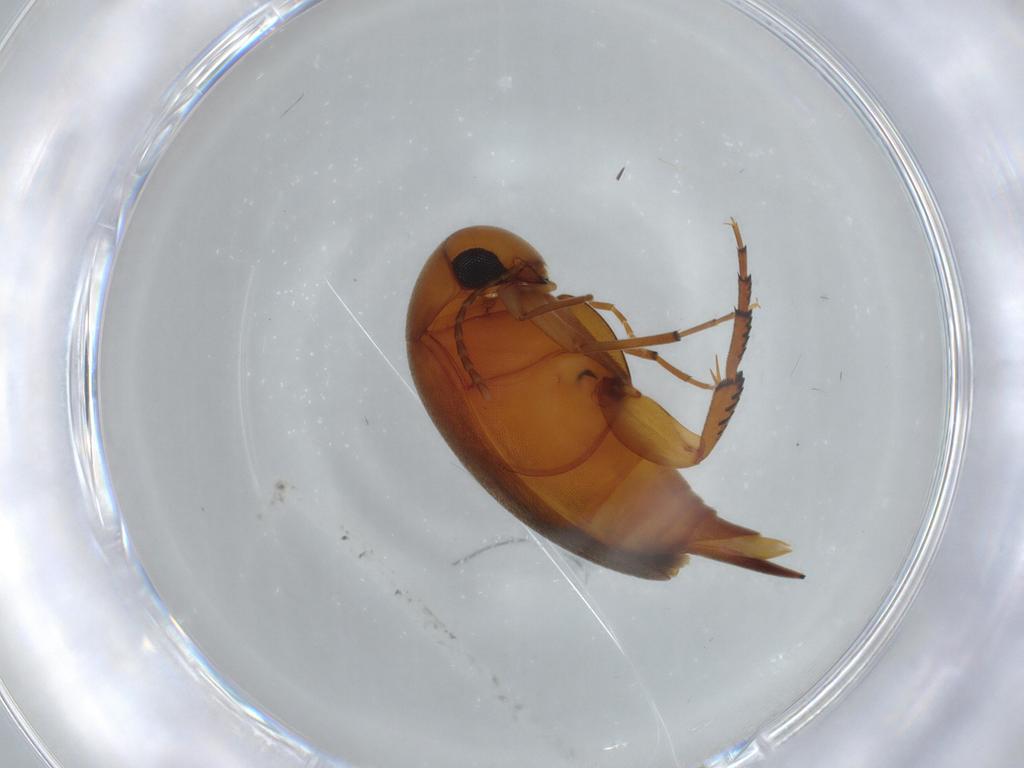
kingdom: Animalia
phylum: Arthropoda
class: Insecta
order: Coleoptera
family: Mordellidae
